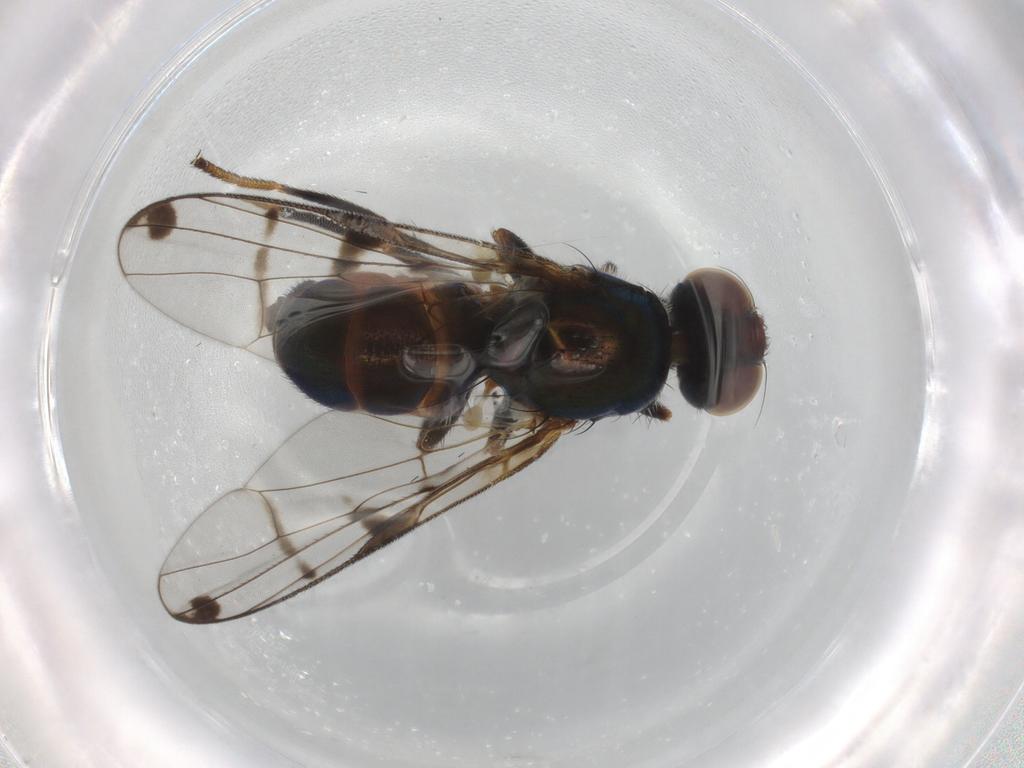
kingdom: Animalia
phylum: Arthropoda
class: Insecta
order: Diptera
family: Platystomatidae
